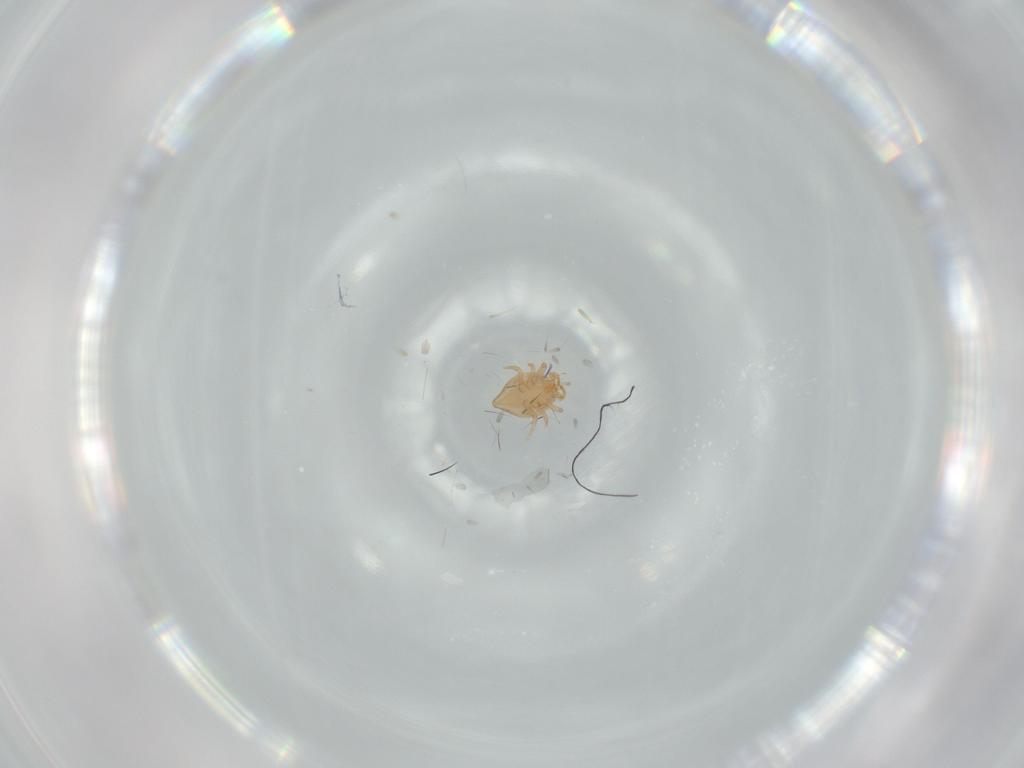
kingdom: Animalia
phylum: Arthropoda
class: Arachnida
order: Mesostigmata
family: Dithinozerconidae
